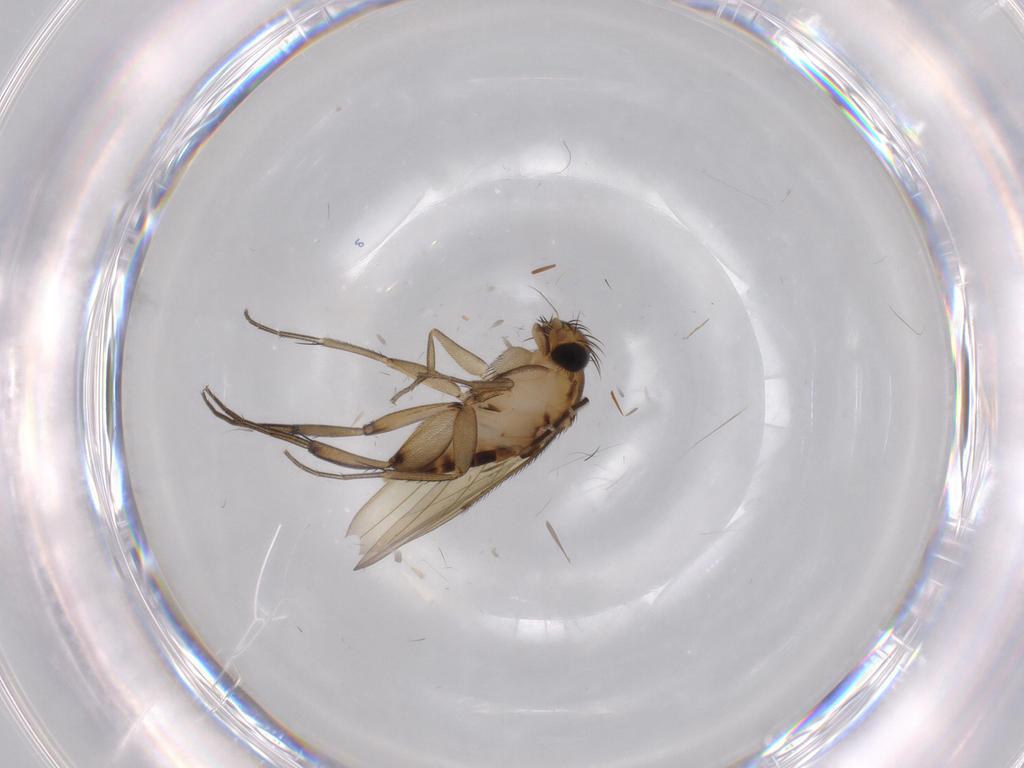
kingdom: Animalia
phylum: Arthropoda
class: Insecta
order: Diptera
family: Phoridae
